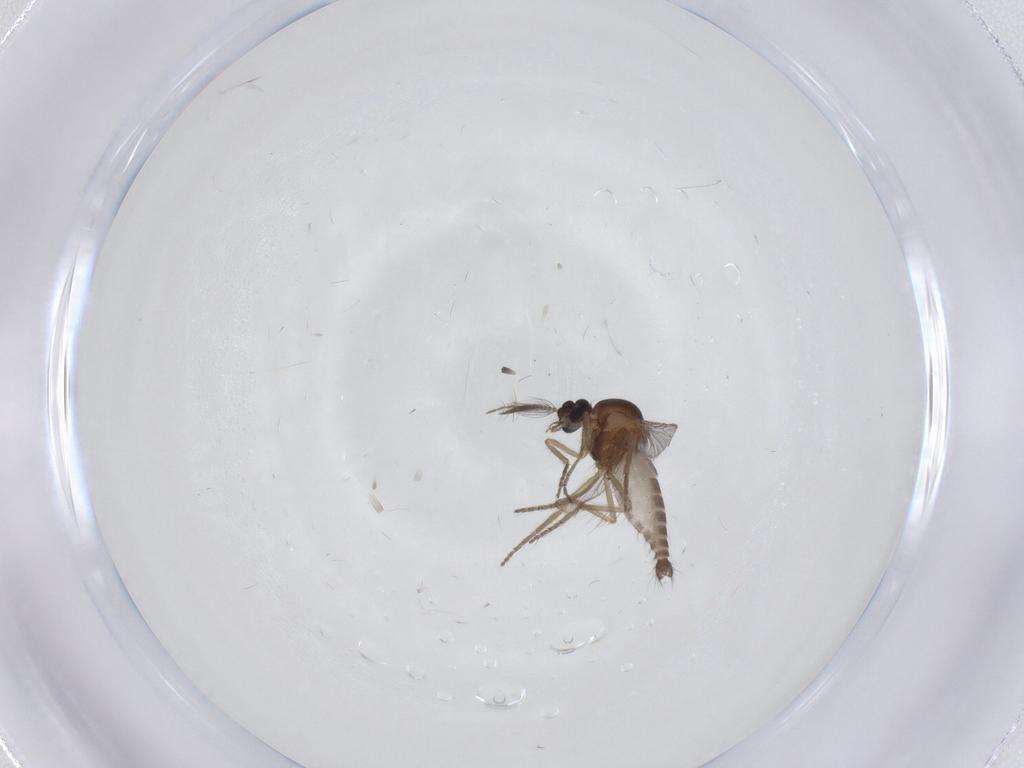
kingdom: Animalia
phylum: Arthropoda
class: Insecta
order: Diptera
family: Ceratopogonidae
